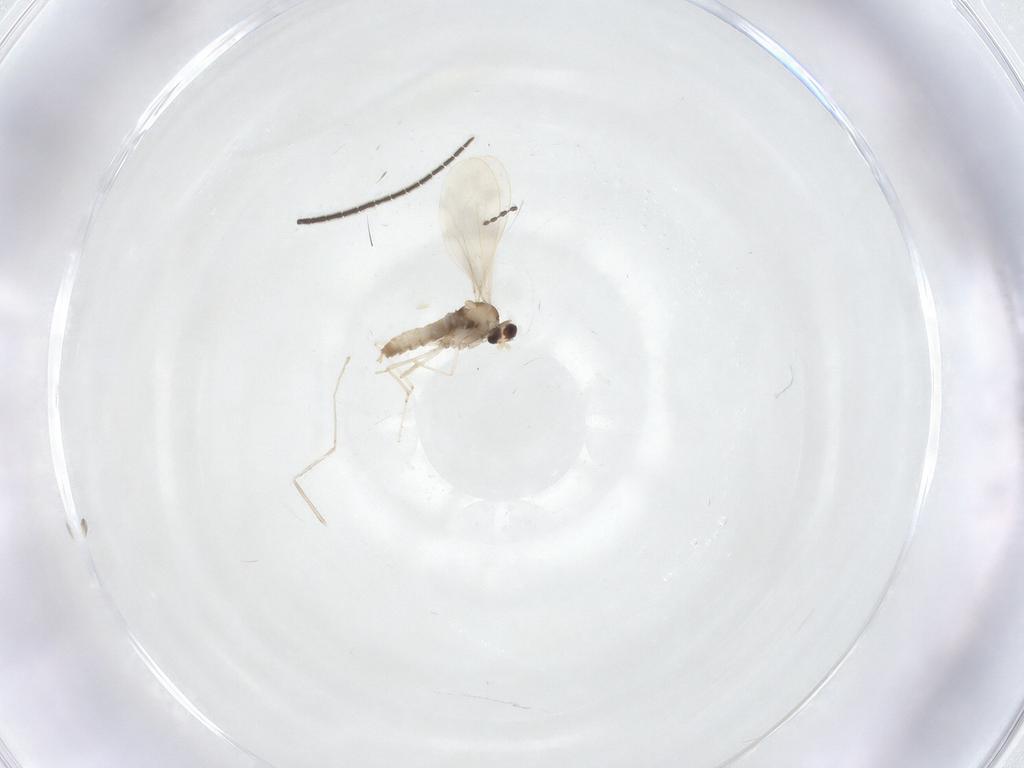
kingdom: Animalia
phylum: Arthropoda
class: Insecta
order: Diptera
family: Cecidomyiidae
